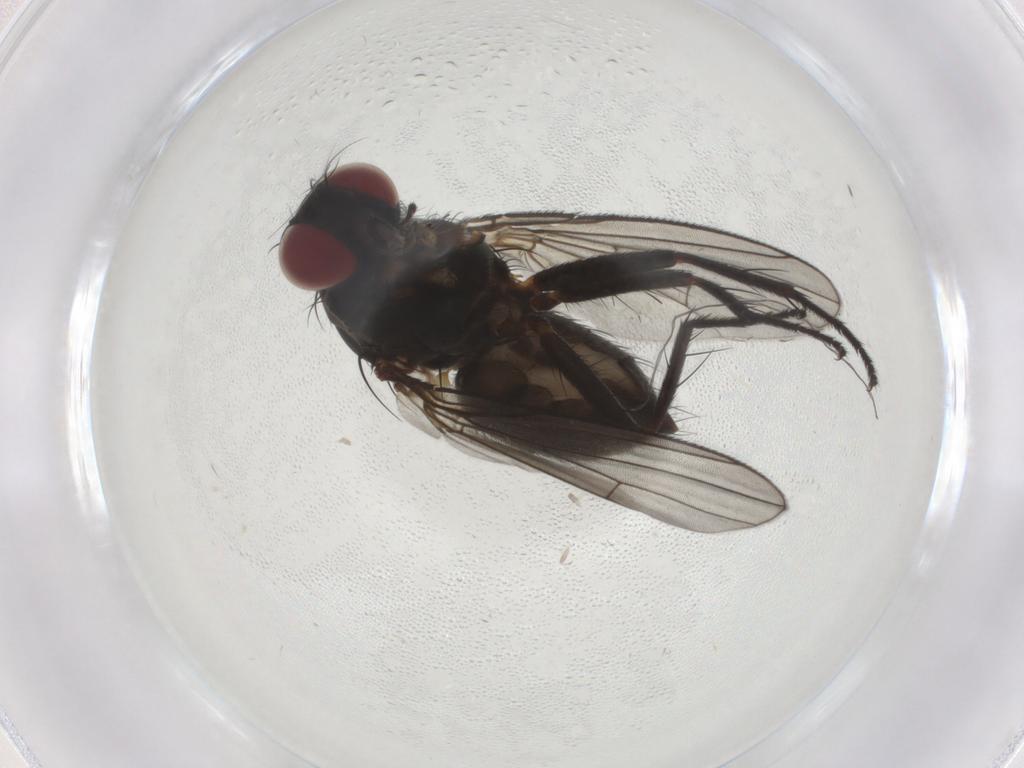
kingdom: Animalia
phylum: Arthropoda
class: Insecta
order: Diptera
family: Muscidae
